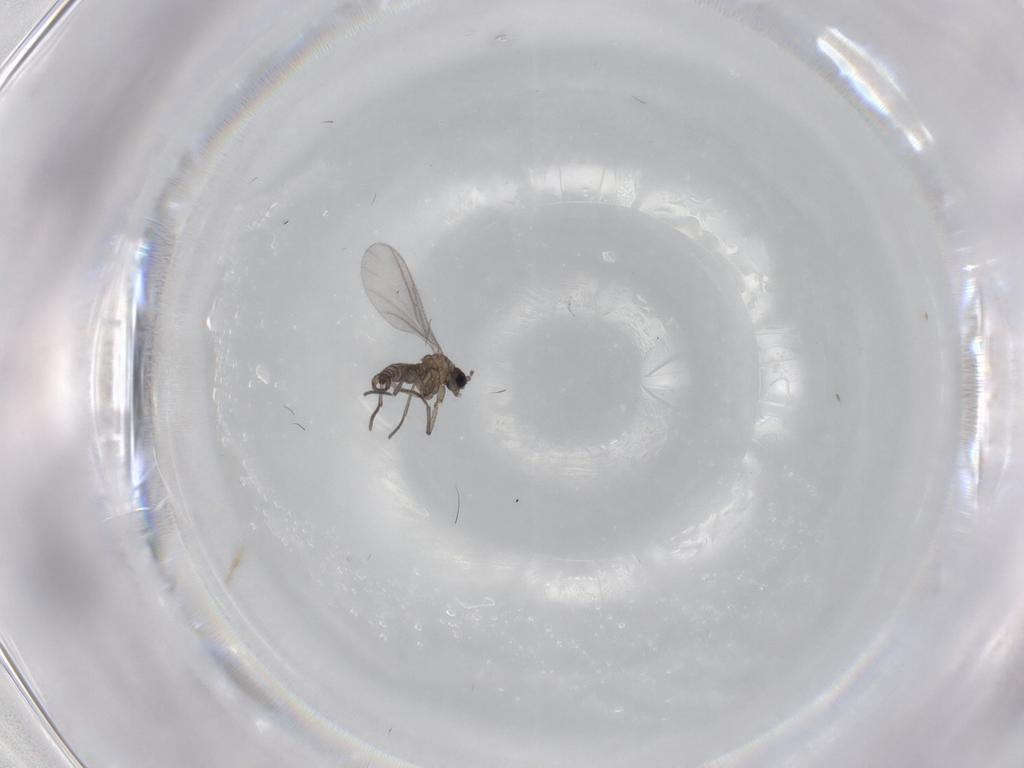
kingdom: Animalia
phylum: Arthropoda
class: Insecta
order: Diptera
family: Sciaridae
